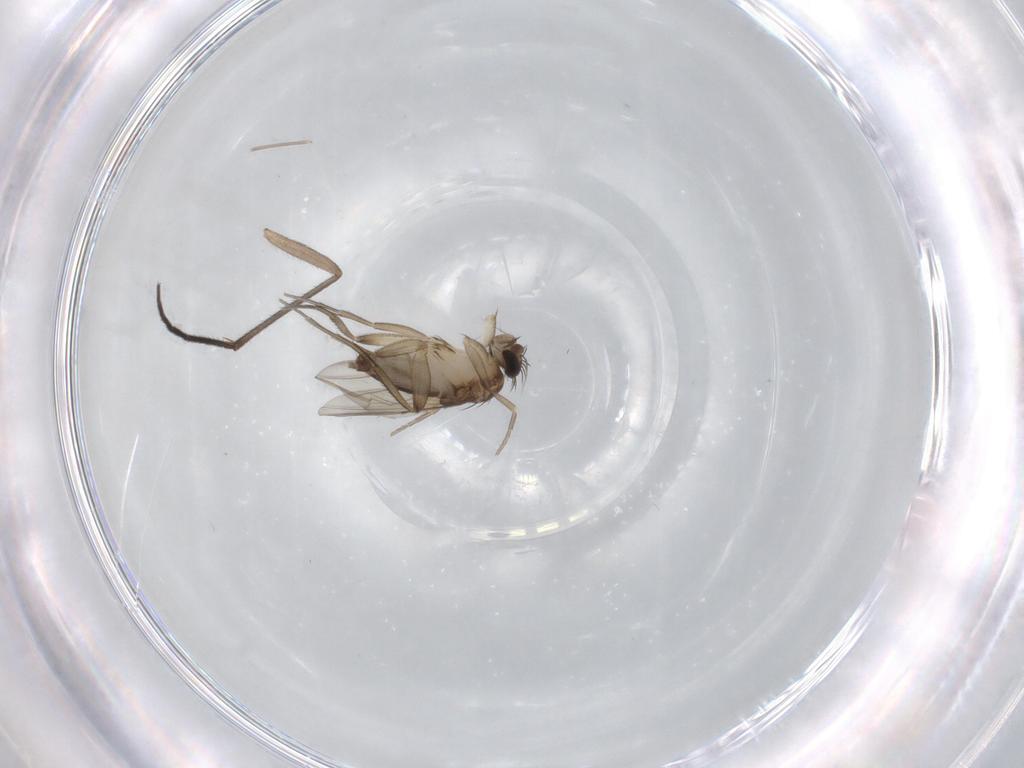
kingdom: Animalia
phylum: Arthropoda
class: Insecta
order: Diptera
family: Phoridae
